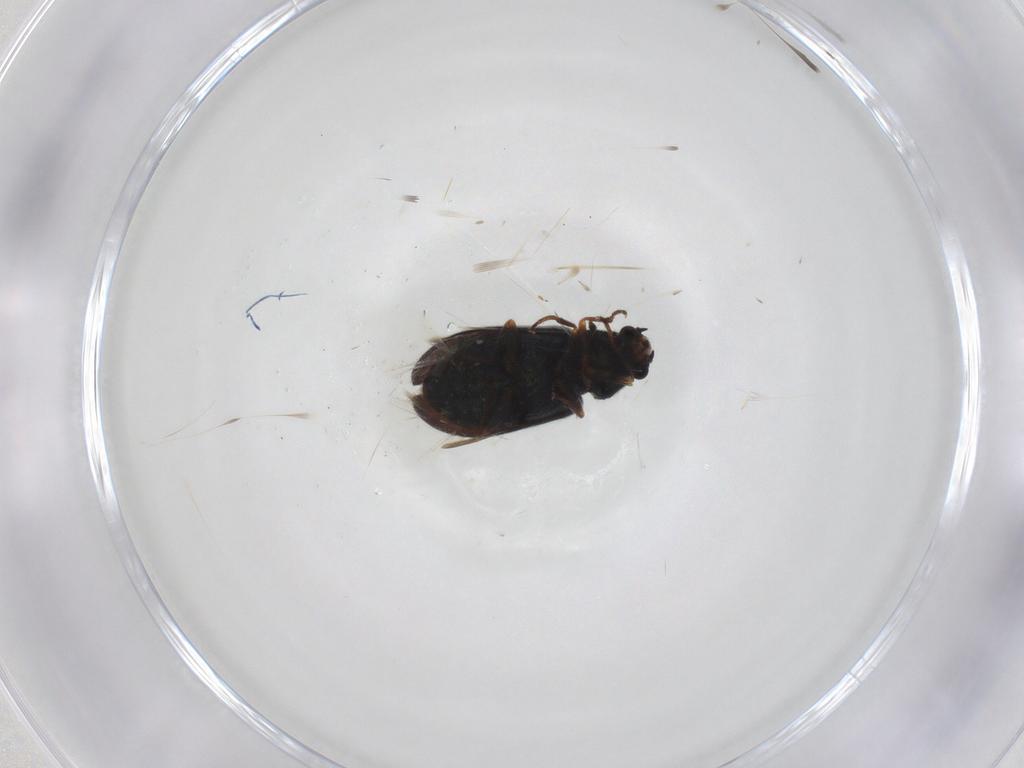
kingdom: Animalia
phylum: Arthropoda
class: Insecta
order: Coleoptera
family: Melyridae
